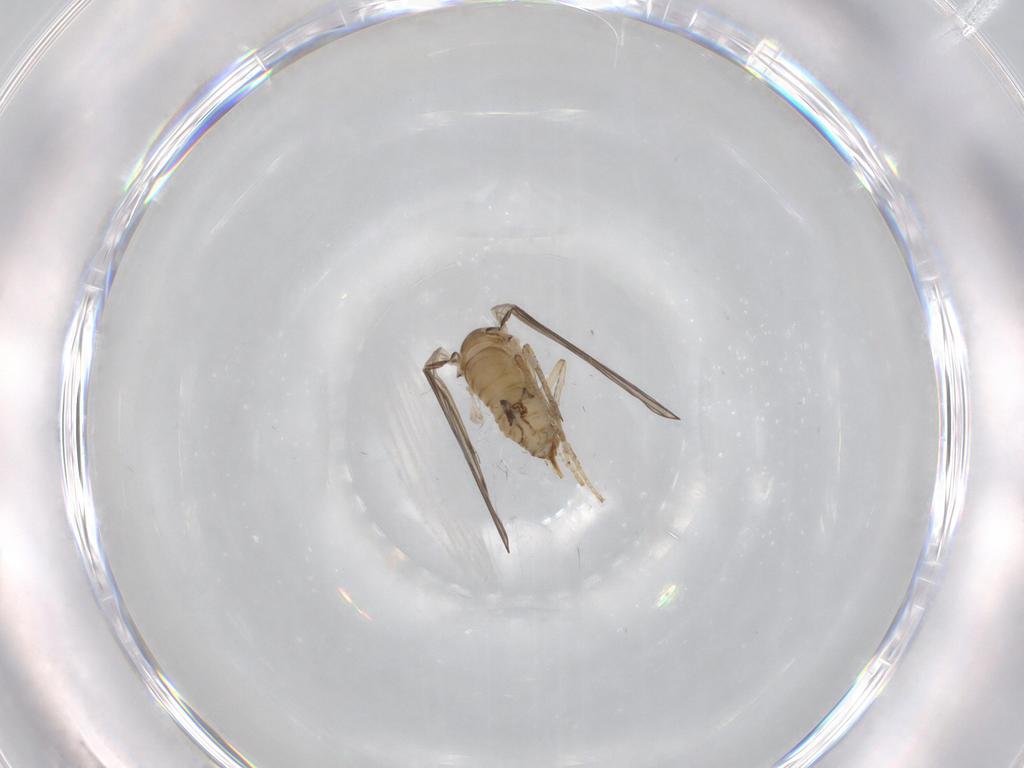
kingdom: Animalia
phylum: Arthropoda
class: Insecta
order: Diptera
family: Psychodidae
